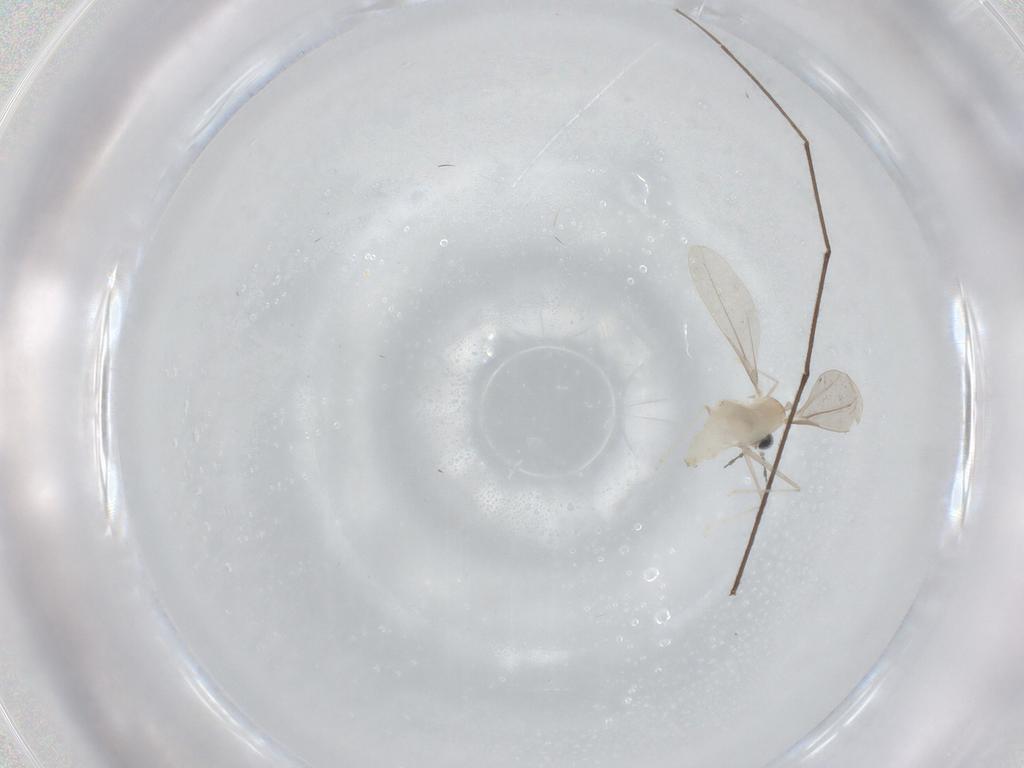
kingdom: Animalia
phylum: Arthropoda
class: Insecta
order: Diptera
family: Chironomidae
